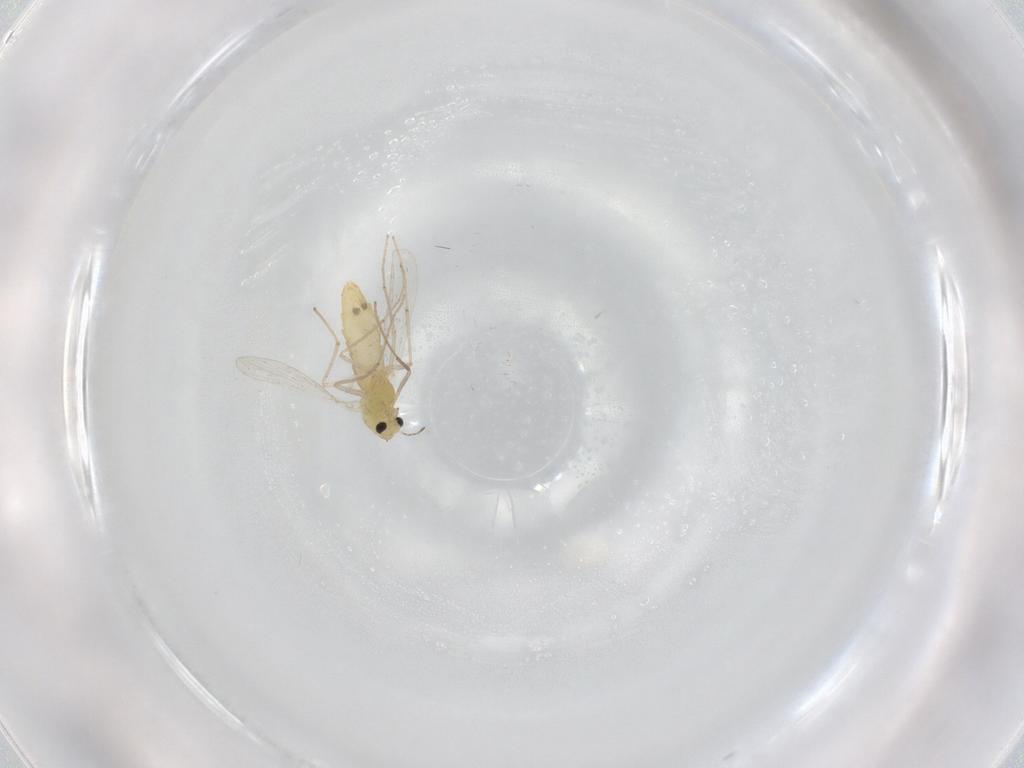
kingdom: Animalia
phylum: Arthropoda
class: Insecta
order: Diptera
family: Chironomidae
